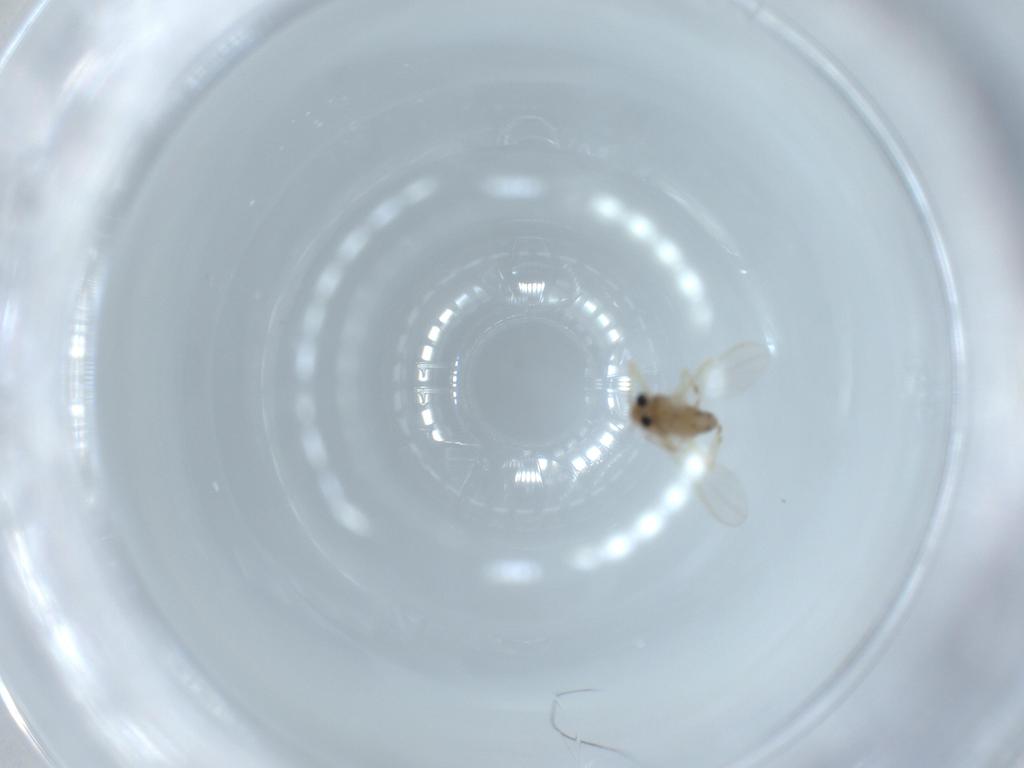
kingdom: Animalia
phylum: Arthropoda
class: Insecta
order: Diptera
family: Chironomidae
